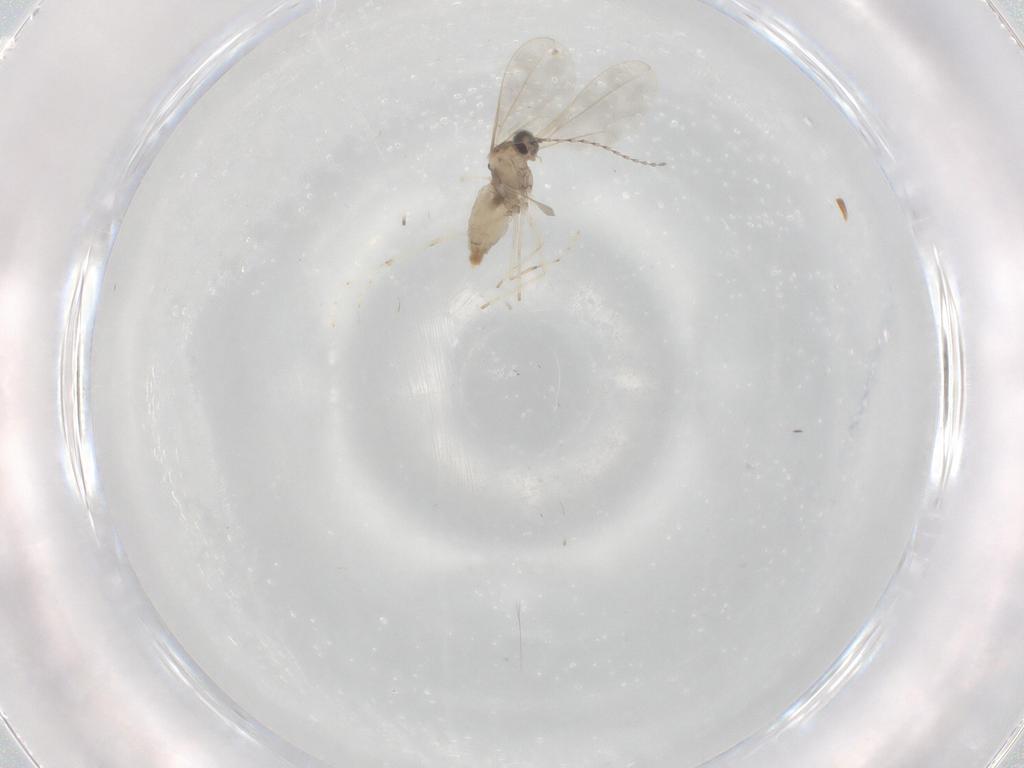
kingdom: Animalia
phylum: Arthropoda
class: Insecta
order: Diptera
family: Cecidomyiidae
